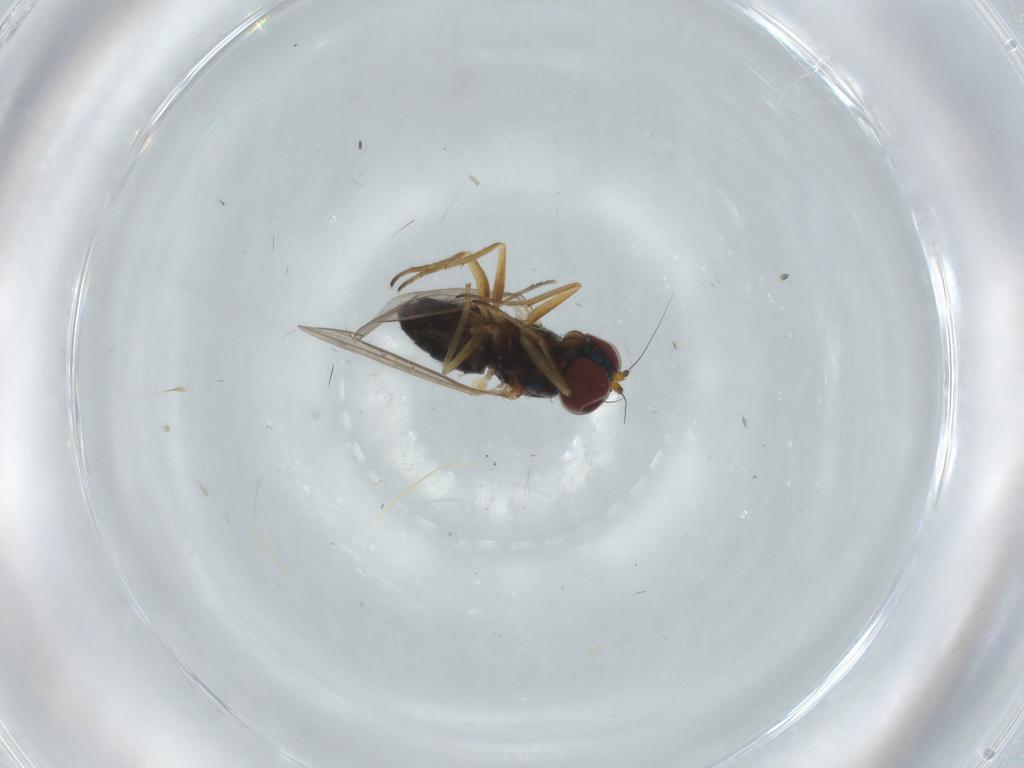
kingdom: Animalia
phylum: Arthropoda
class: Insecta
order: Diptera
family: Dolichopodidae
